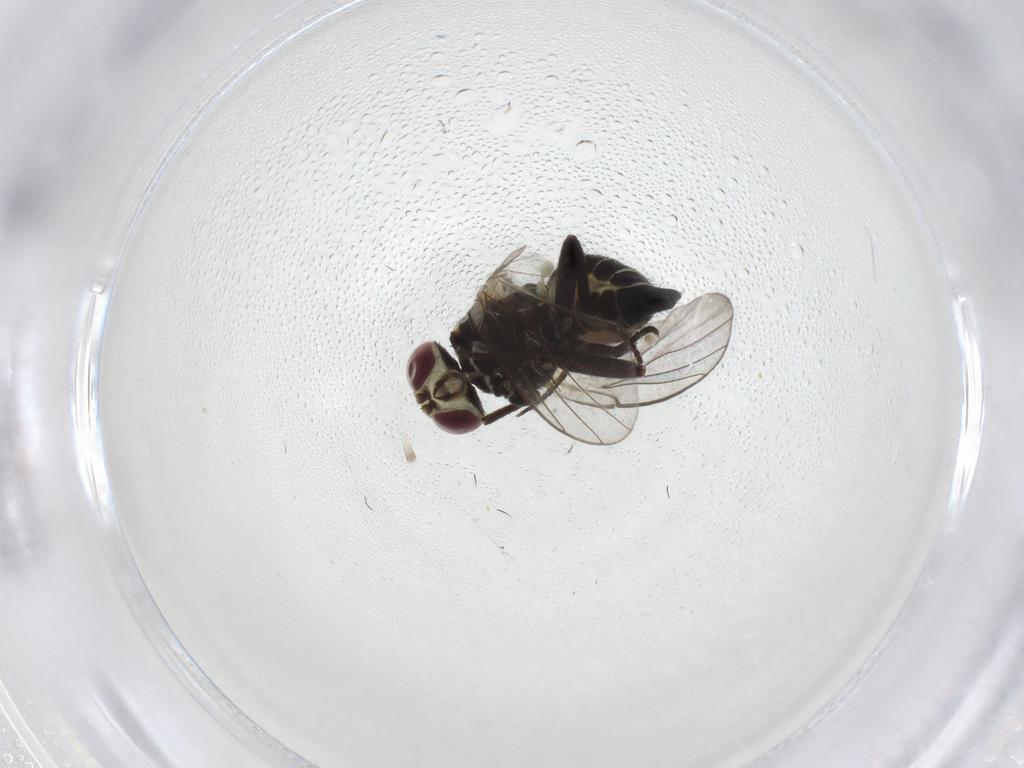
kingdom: Animalia
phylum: Arthropoda
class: Insecta
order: Diptera
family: Agromyzidae
